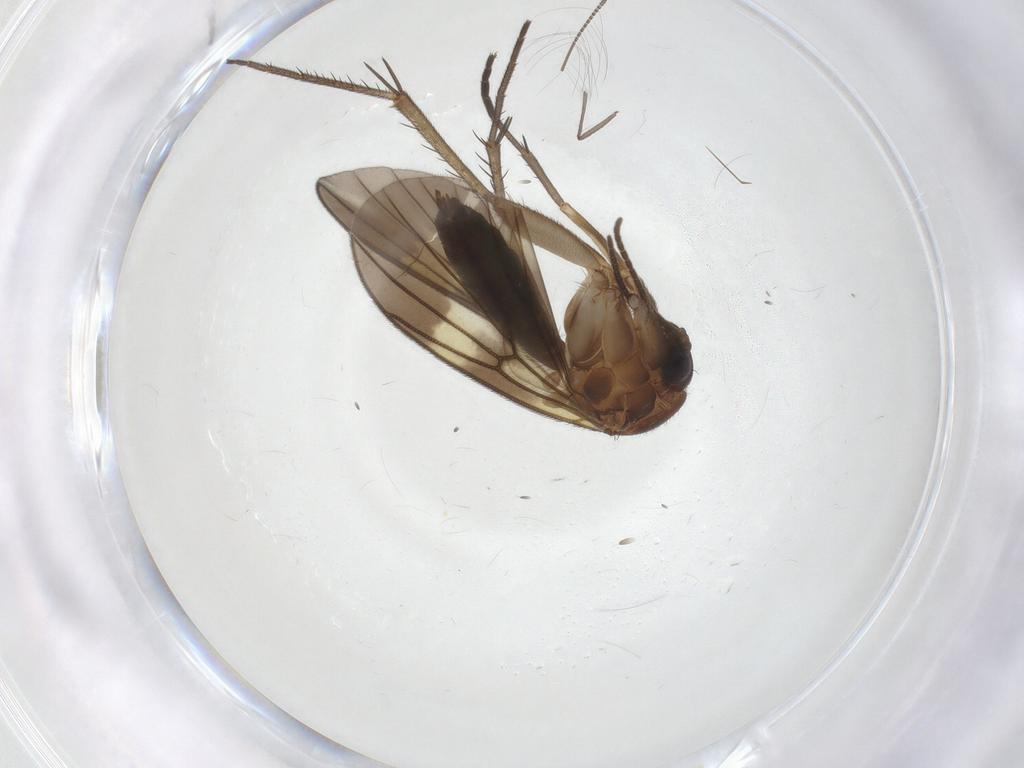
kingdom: Animalia
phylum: Arthropoda
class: Insecta
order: Diptera
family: Mycetophilidae
